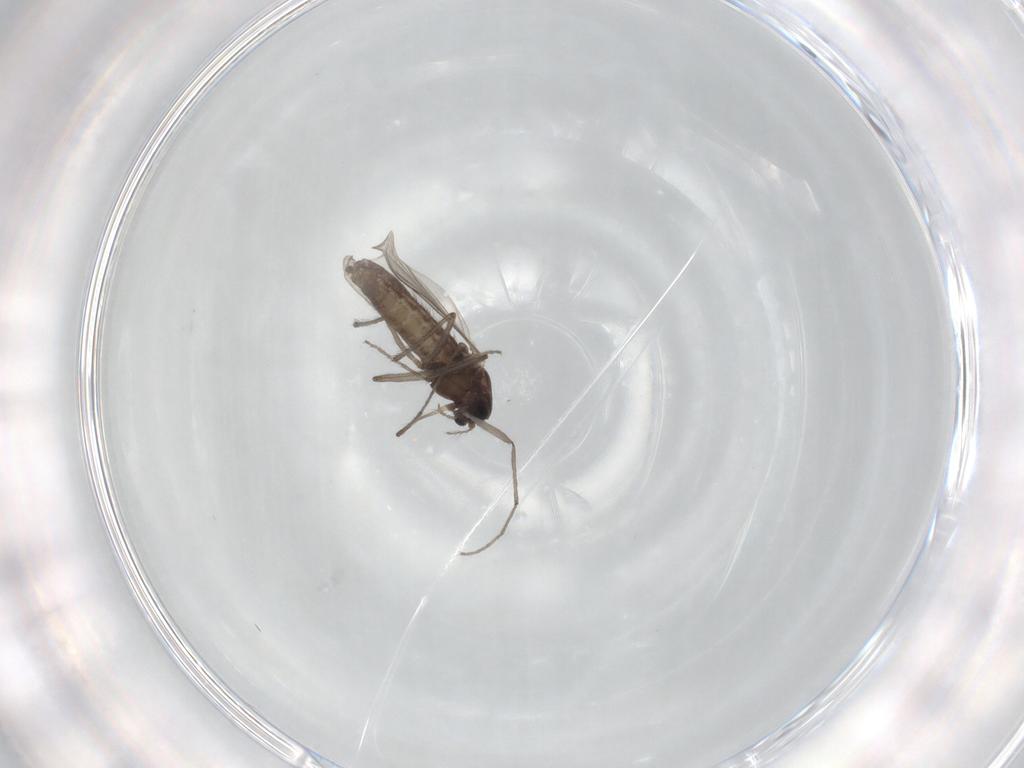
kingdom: Animalia
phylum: Arthropoda
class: Insecta
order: Diptera
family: Chironomidae
